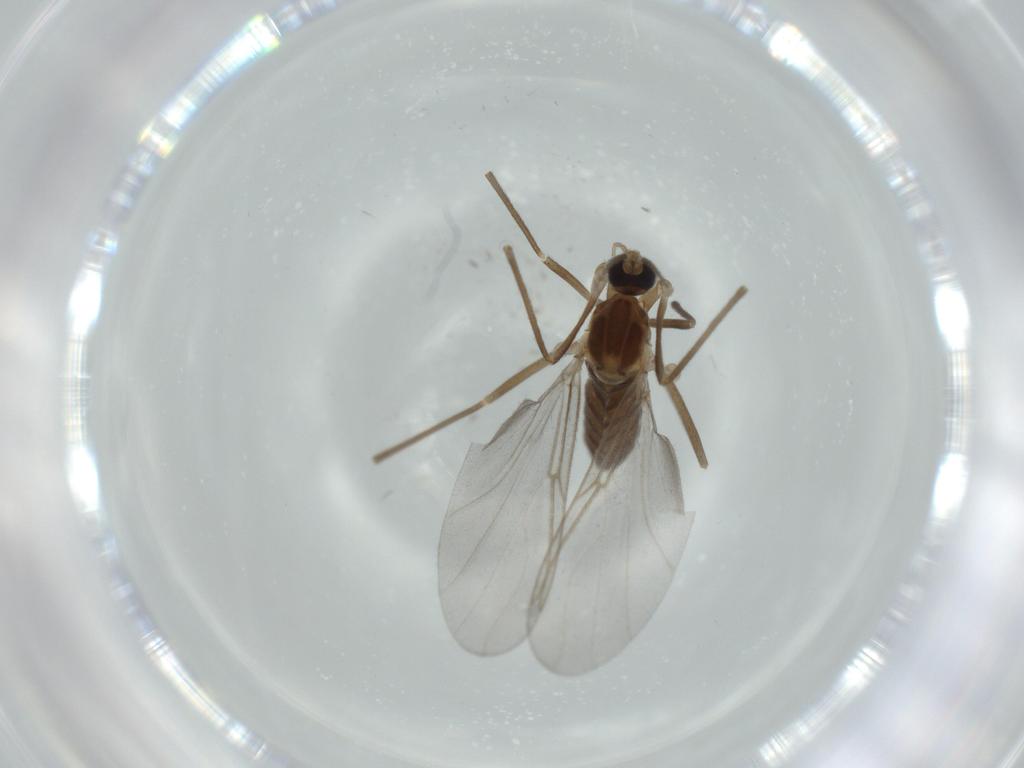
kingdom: Animalia
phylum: Arthropoda
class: Insecta
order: Diptera
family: Cecidomyiidae
